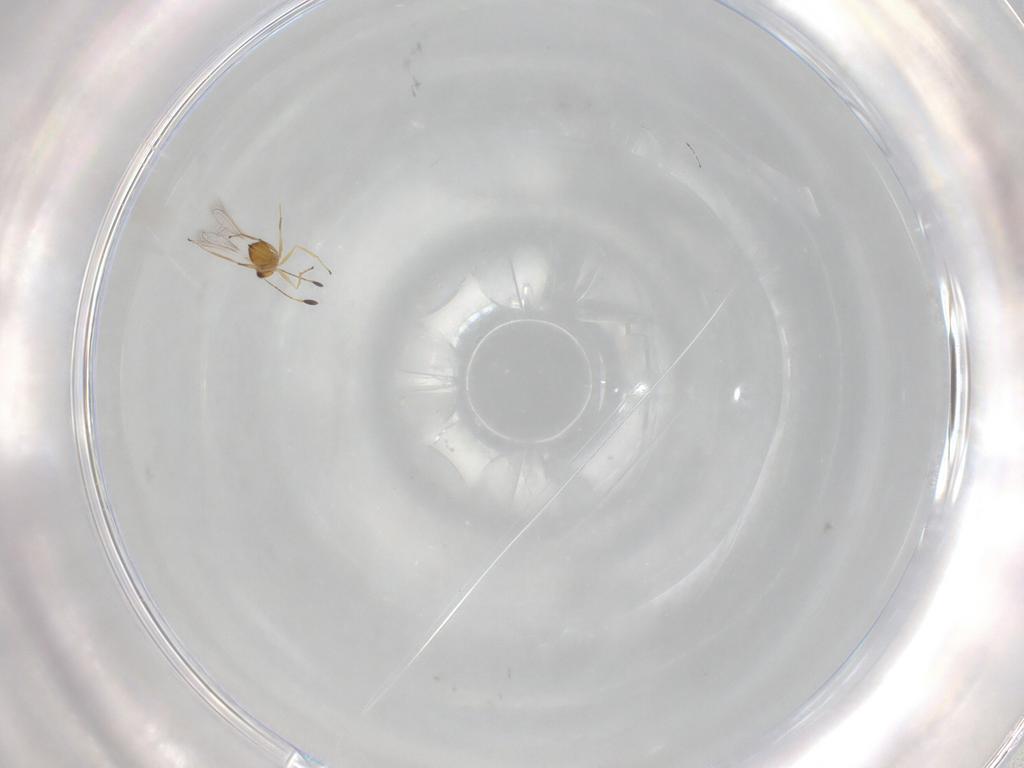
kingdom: Animalia
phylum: Arthropoda
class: Insecta
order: Hymenoptera
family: Mymaridae
